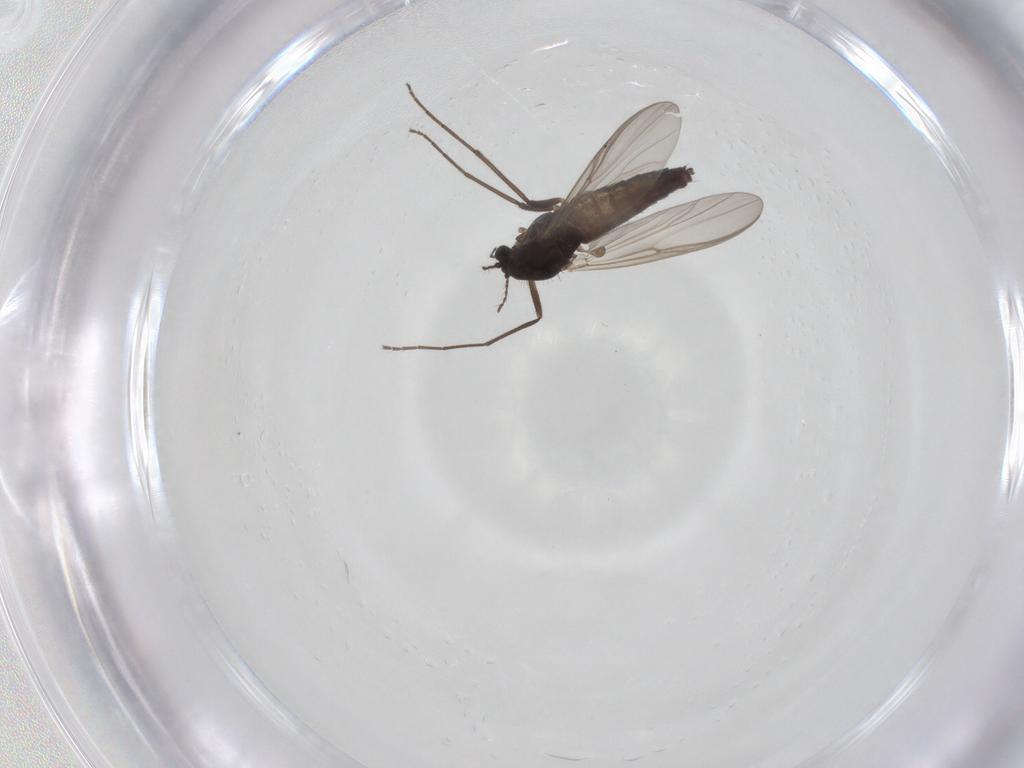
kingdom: Animalia
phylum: Arthropoda
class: Insecta
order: Diptera
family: Chironomidae
